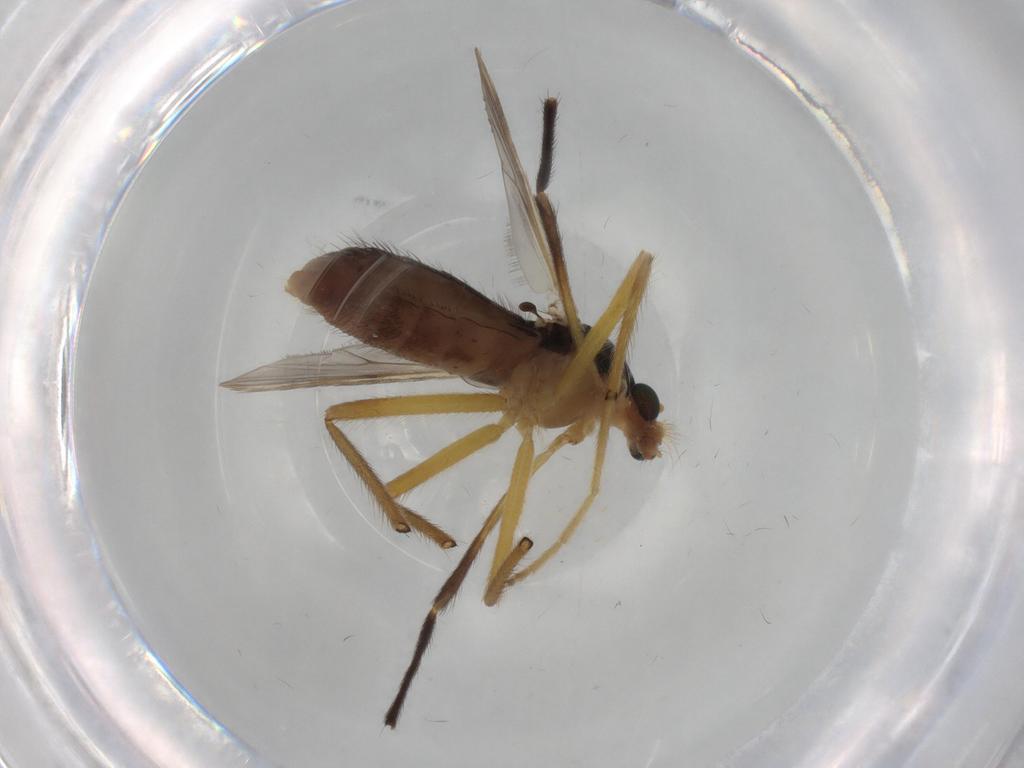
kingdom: Animalia
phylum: Arthropoda
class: Insecta
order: Diptera
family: Chironomidae
